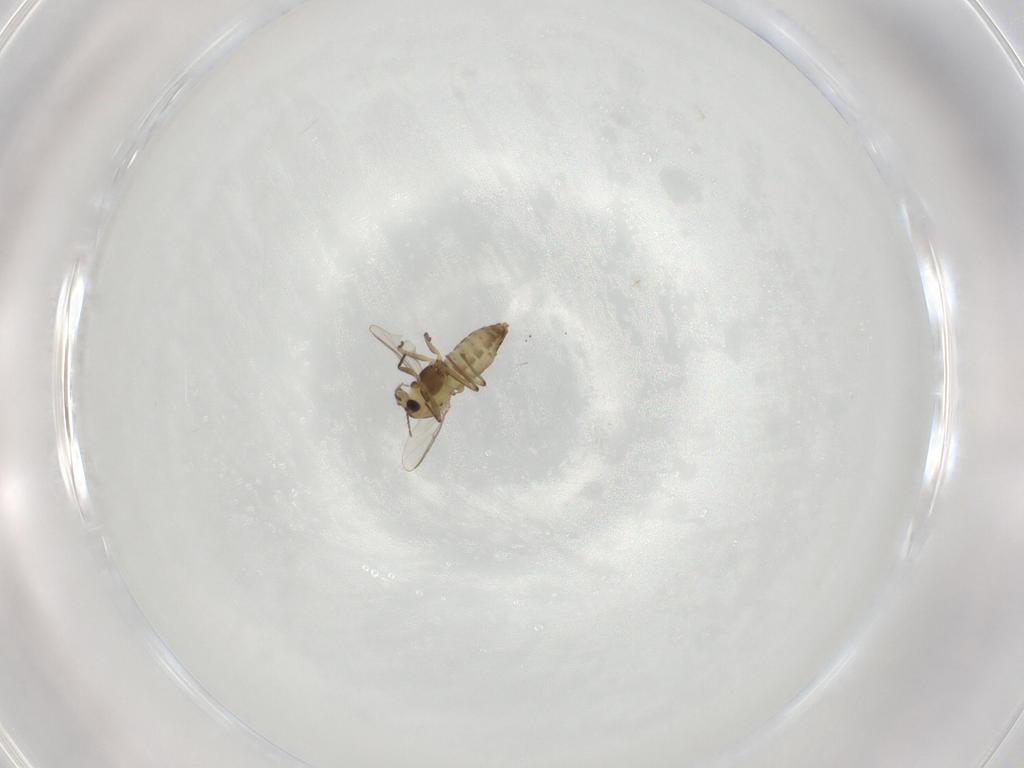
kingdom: Animalia
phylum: Arthropoda
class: Insecta
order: Diptera
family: Chironomidae
